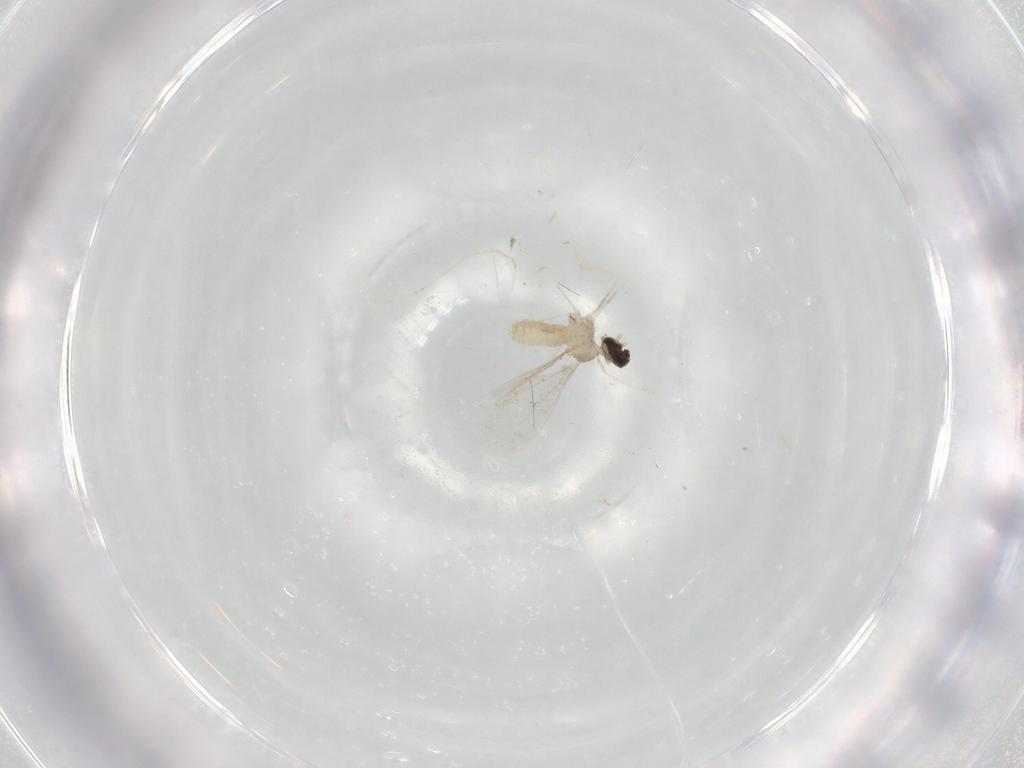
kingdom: Animalia
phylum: Arthropoda
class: Insecta
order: Diptera
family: Cecidomyiidae
